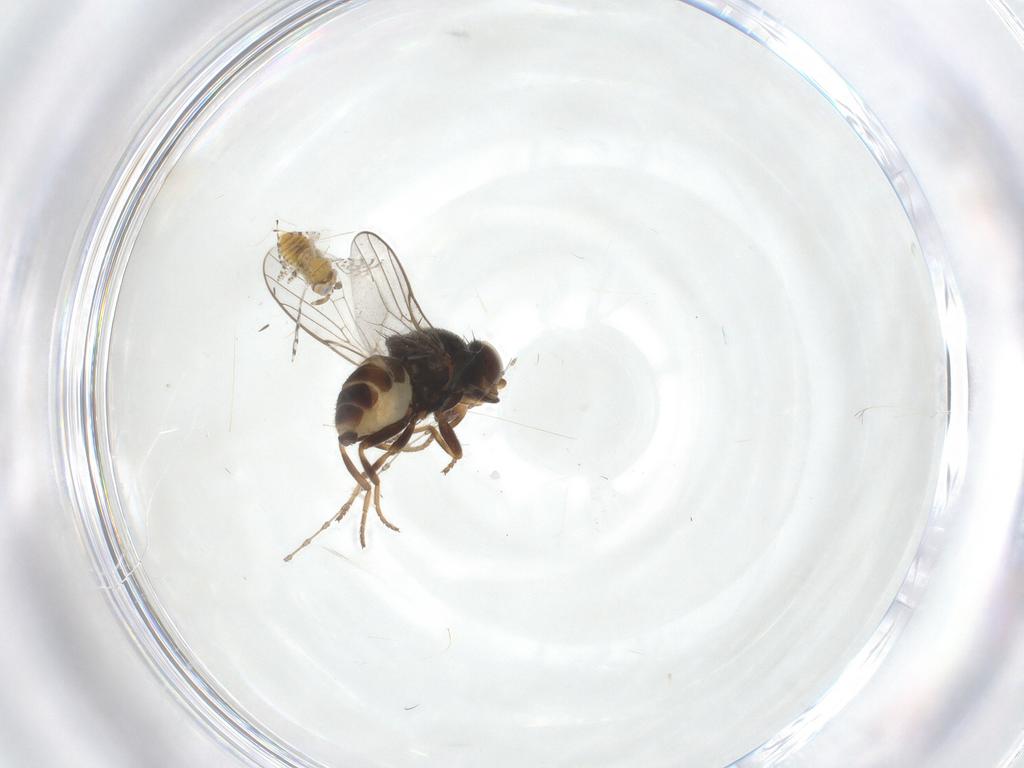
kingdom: Animalia
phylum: Arthropoda
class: Insecta
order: Diptera
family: Chloropidae
